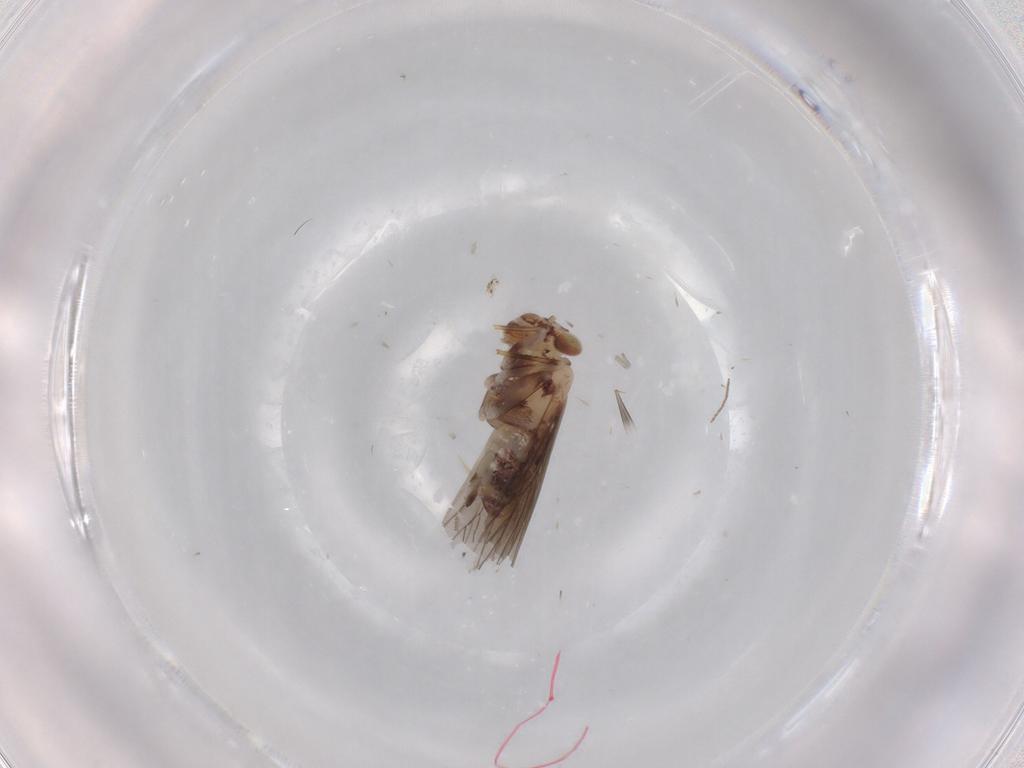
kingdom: Animalia
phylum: Arthropoda
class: Insecta
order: Psocodea
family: Lepidopsocidae
